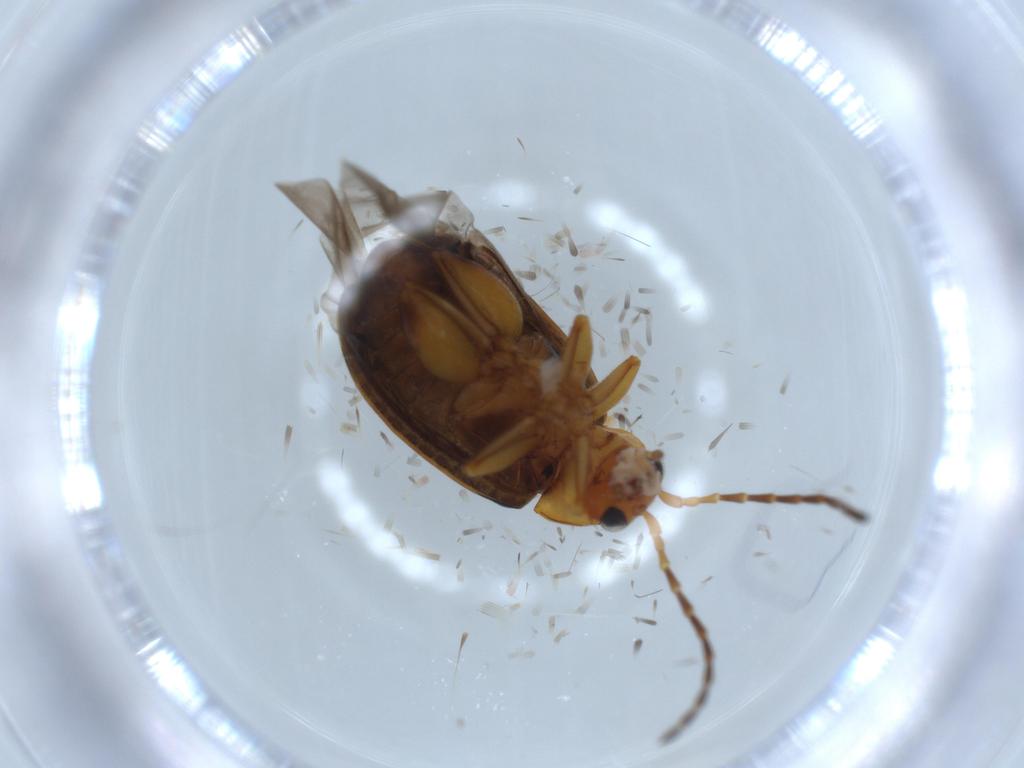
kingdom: Animalia
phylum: Arthropoda
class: Insecta
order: Coleoptera
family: Chrysomelidae
